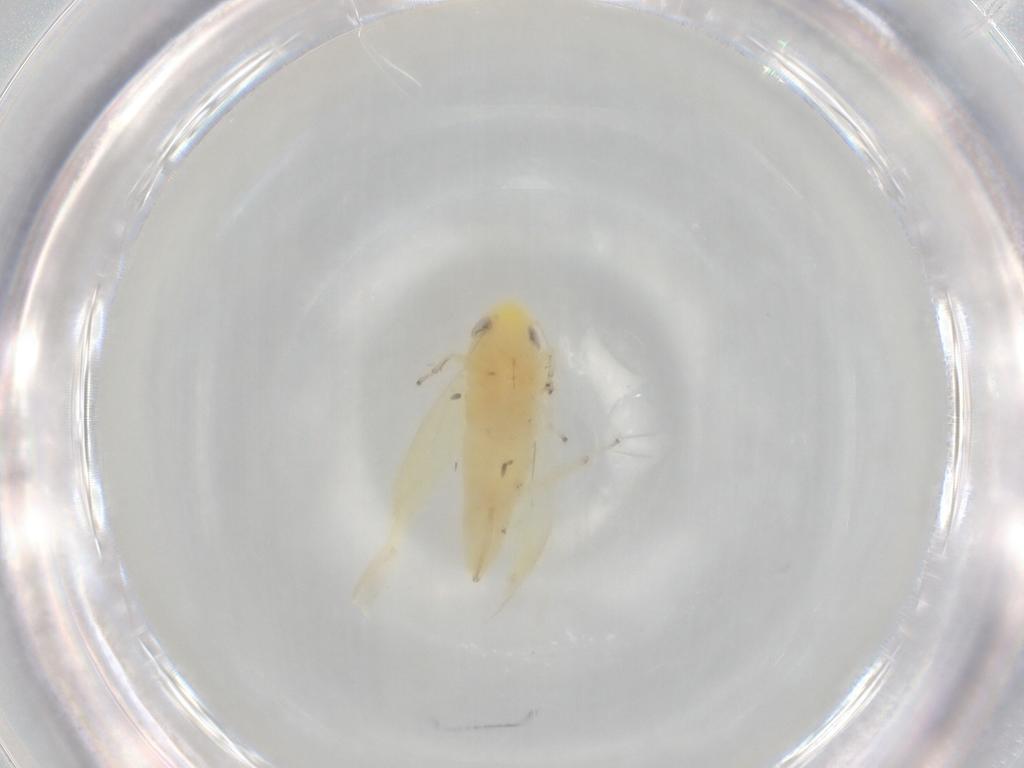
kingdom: Animalia
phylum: Arthropoda
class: Insecta
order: Hemiptera
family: Cicadellidae
